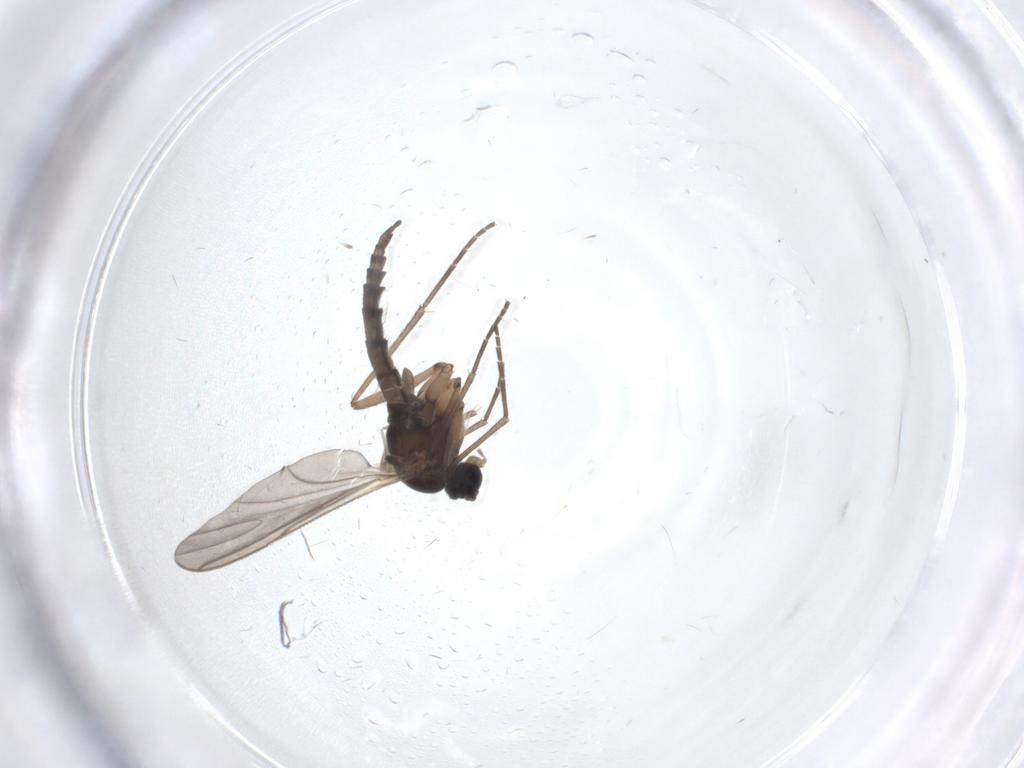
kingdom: Animalia
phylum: Arthropoda
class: Insecta
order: Diptera
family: Sciaridae
